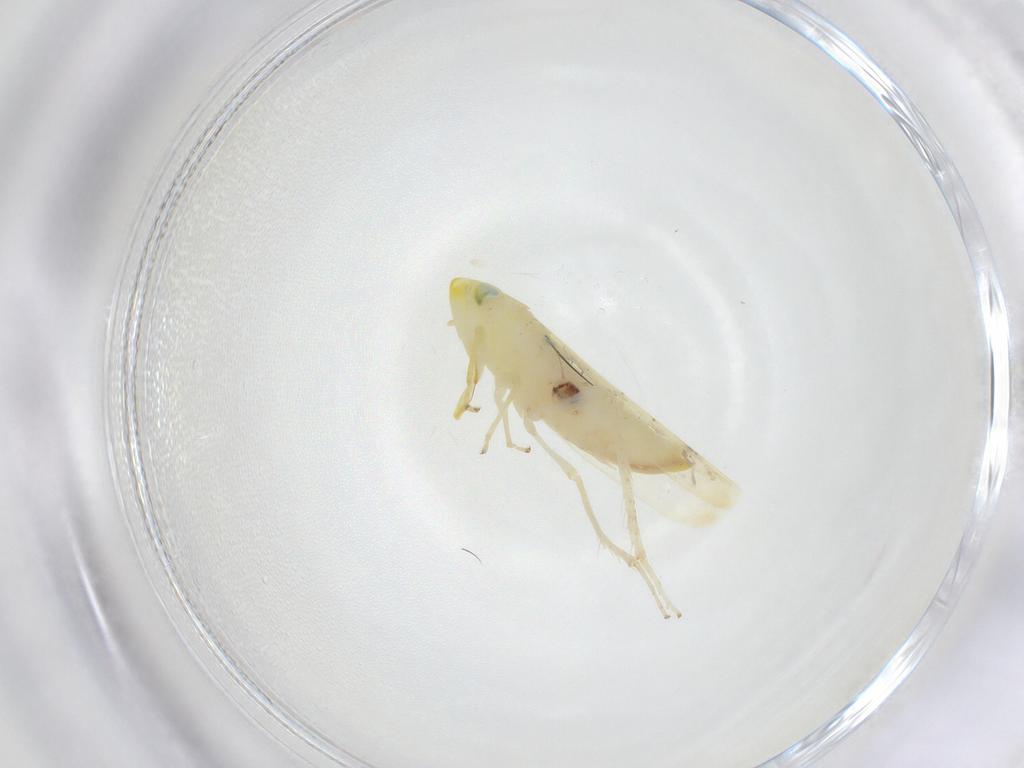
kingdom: Animalia
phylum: Arthropoda
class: Insecta
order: Hemiptera
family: Cicadellidae
